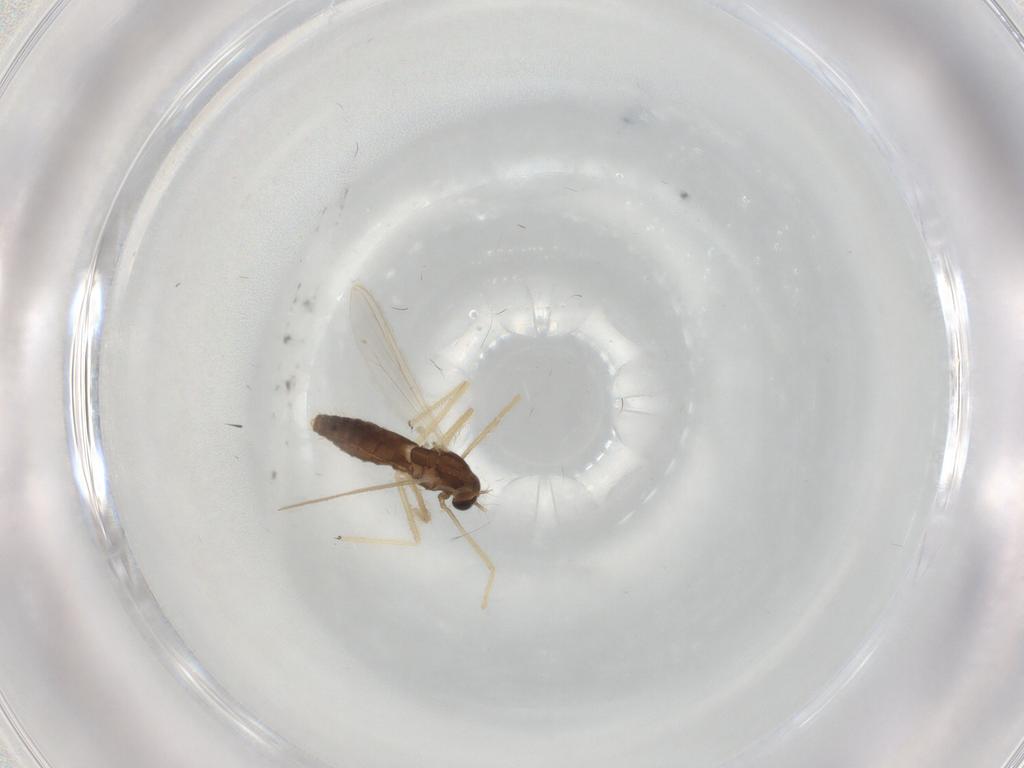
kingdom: Animalia
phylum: Arthropoda
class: Insecta
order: Diptera
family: Chironomidae
